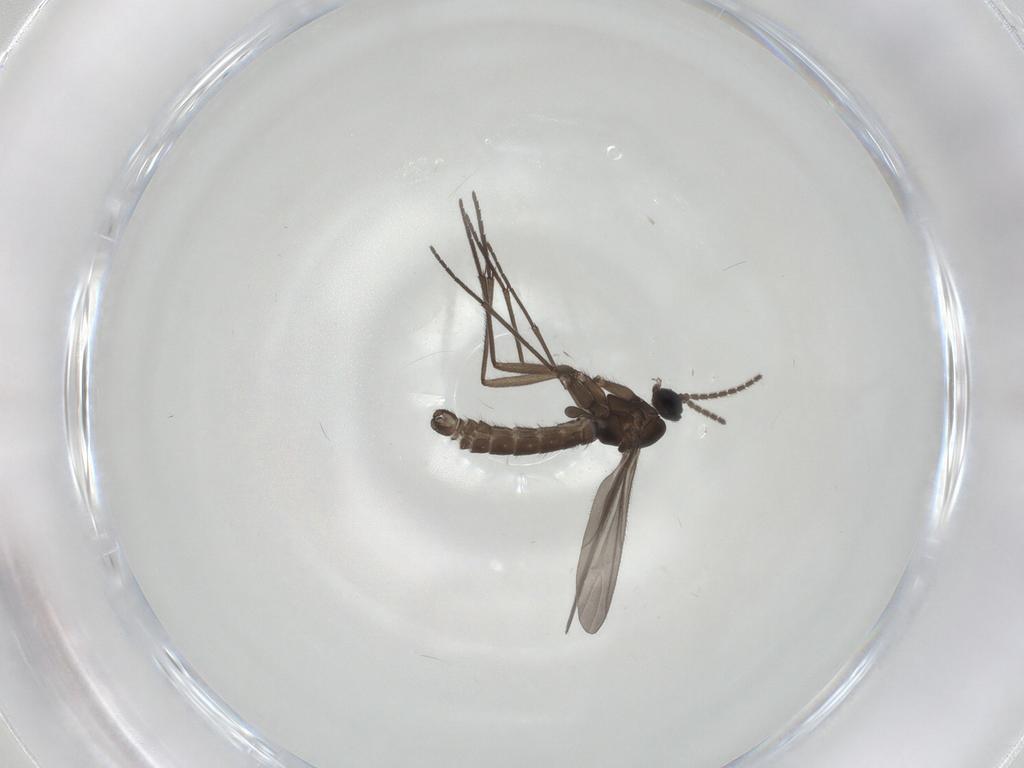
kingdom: Animalia
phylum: Arthropoda
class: Insecta
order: Diptera
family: Sciaridae
